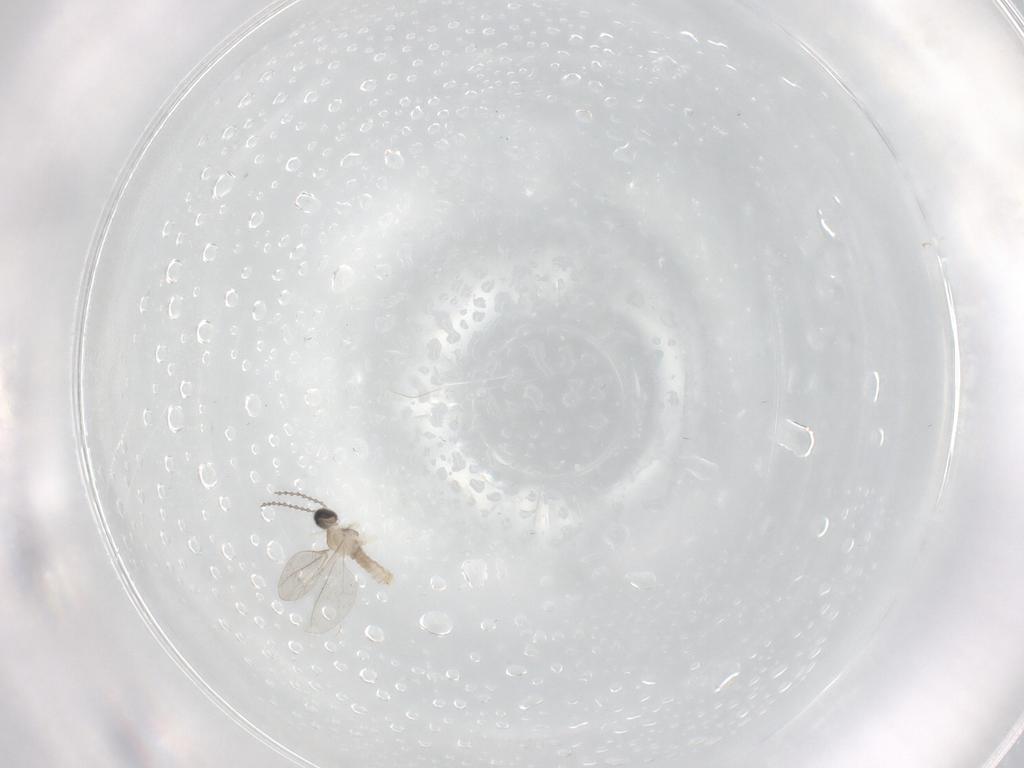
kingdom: Animalia
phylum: Arthropoda
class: Insecta
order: Diptera
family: Cecidomyiidae
